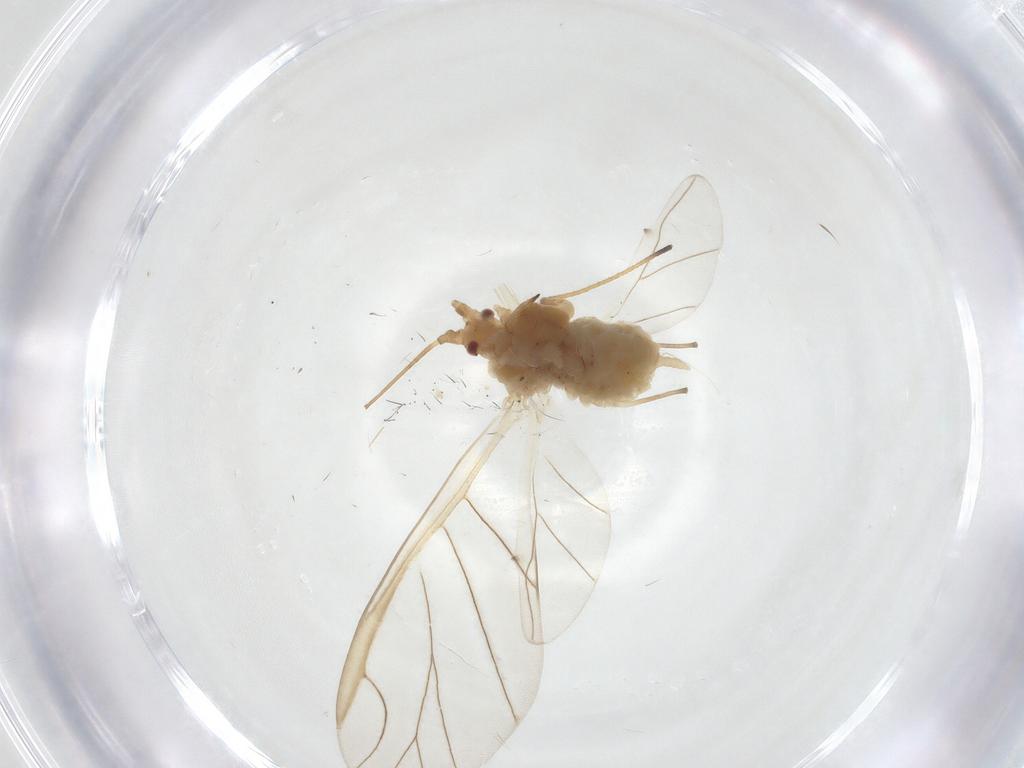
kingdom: Animalia
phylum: Arthropoda
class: Insecta
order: Hemiptera
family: Aphididae
